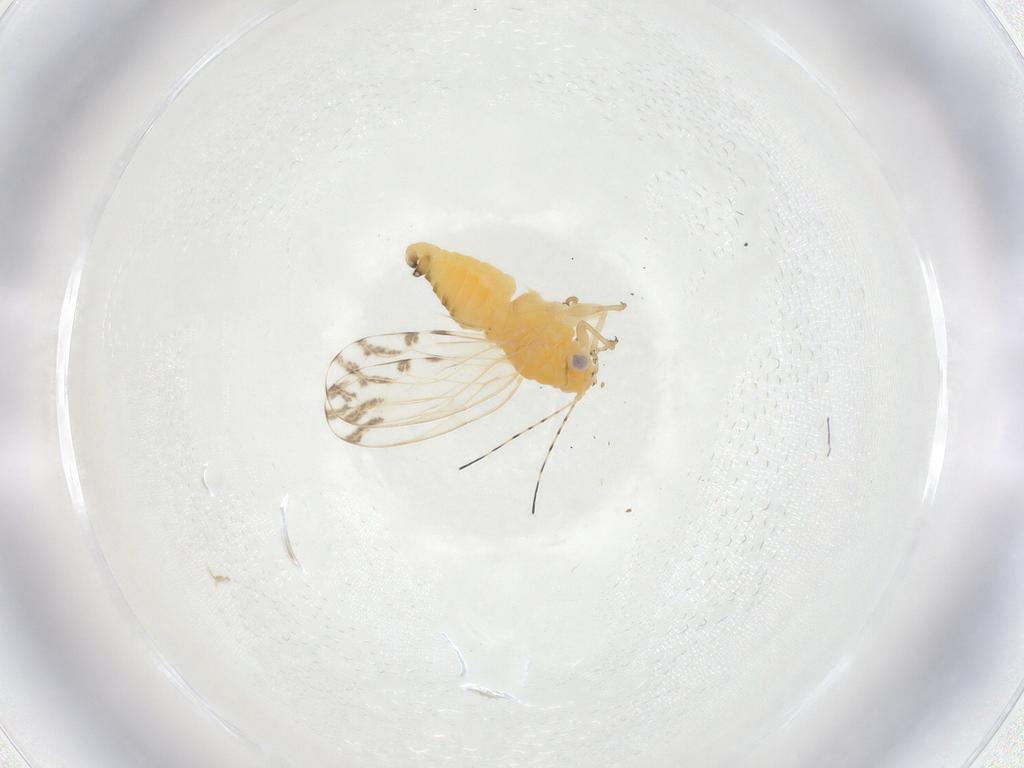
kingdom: Animalia
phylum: Arthropoda
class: Insecta
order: Hemiptera
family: Psyllidae
